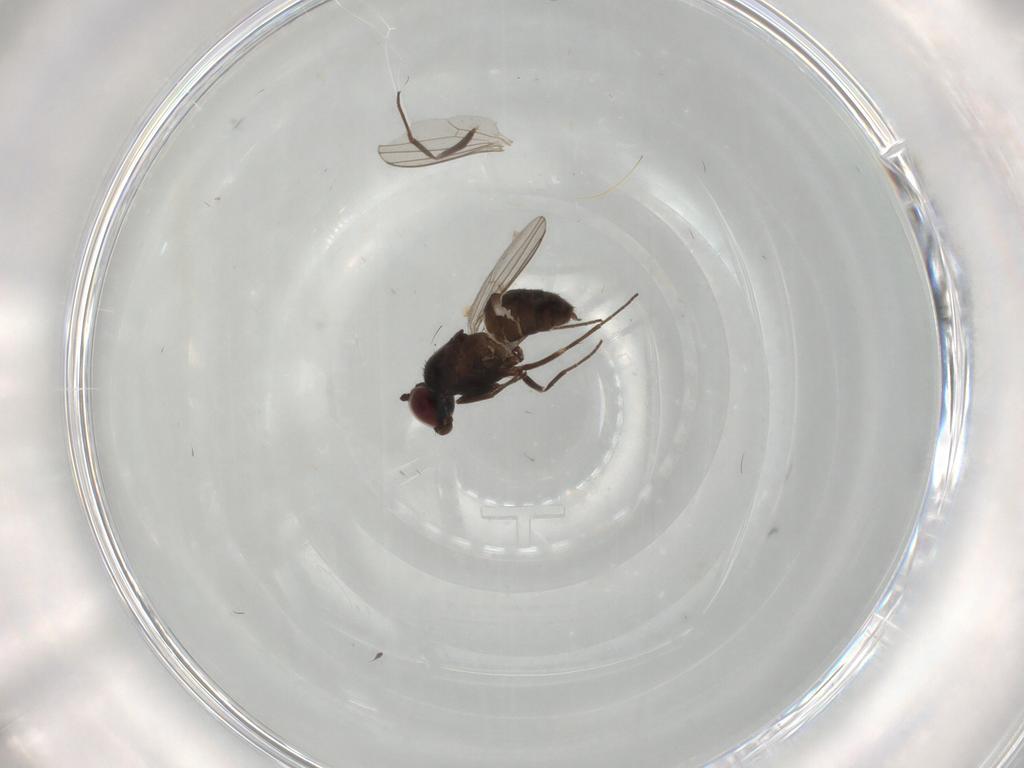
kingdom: Animalia
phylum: Arthropoda
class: Insecta
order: Diptera
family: Dolichopodidae
